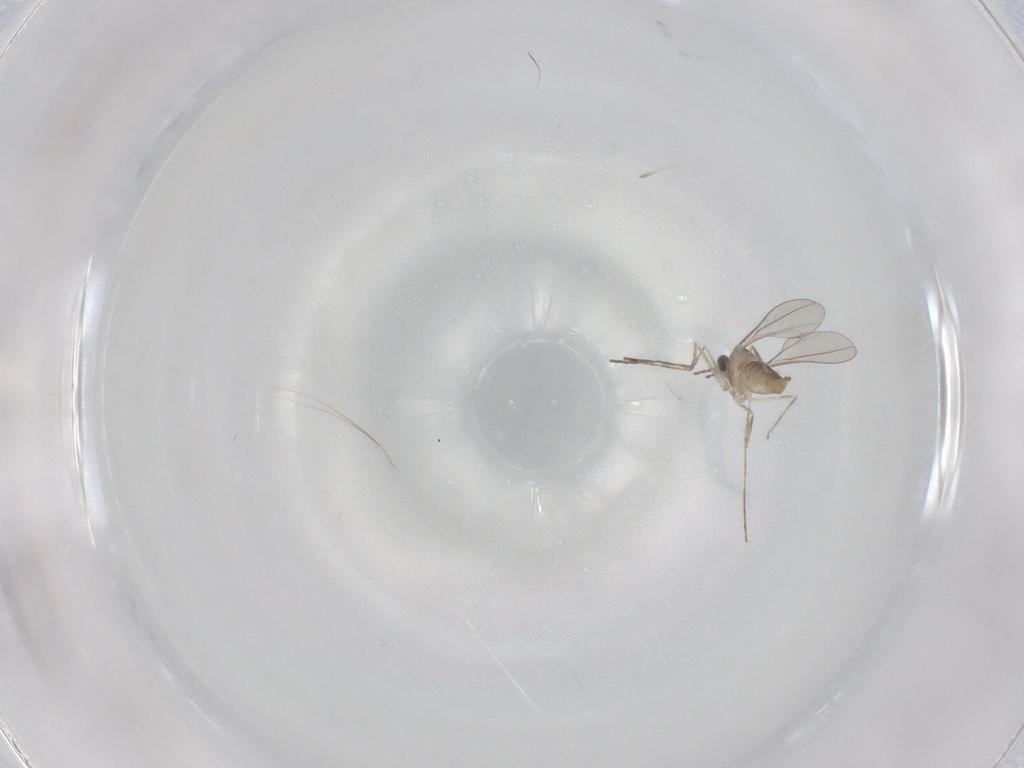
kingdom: Animalia
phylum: Arthropoda
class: Insecta
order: Diptera
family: Cecidomyiidae
